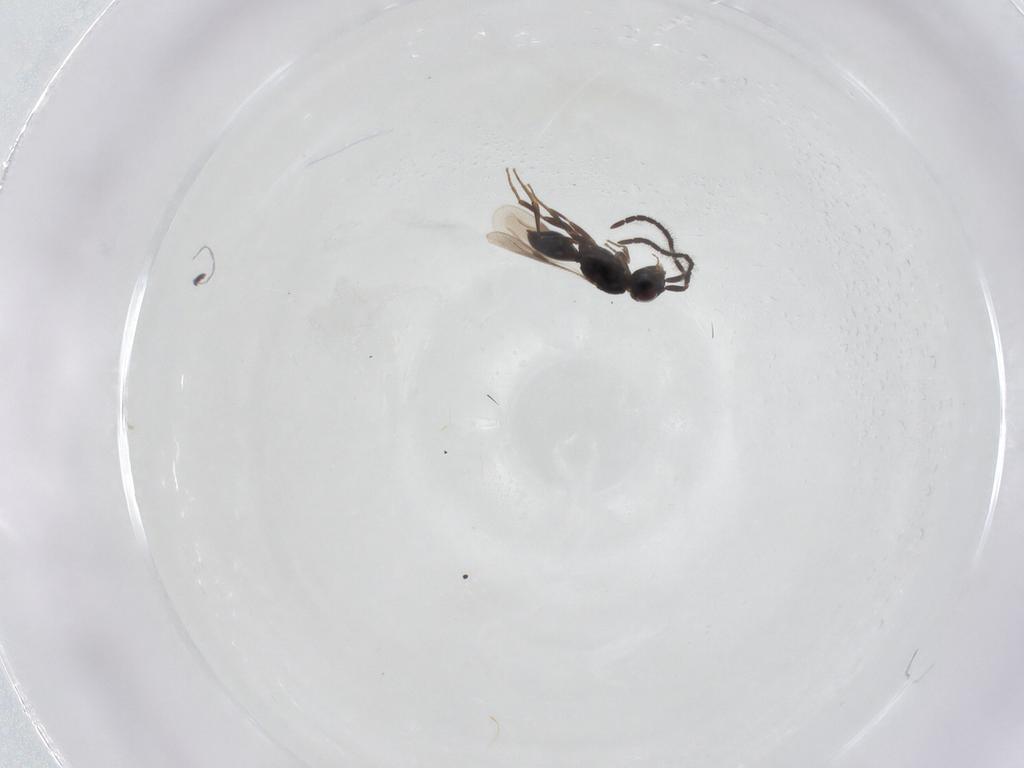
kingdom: Animalia
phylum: Arthropoda
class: Insecta
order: Hymenoptera
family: Megaspilidae
